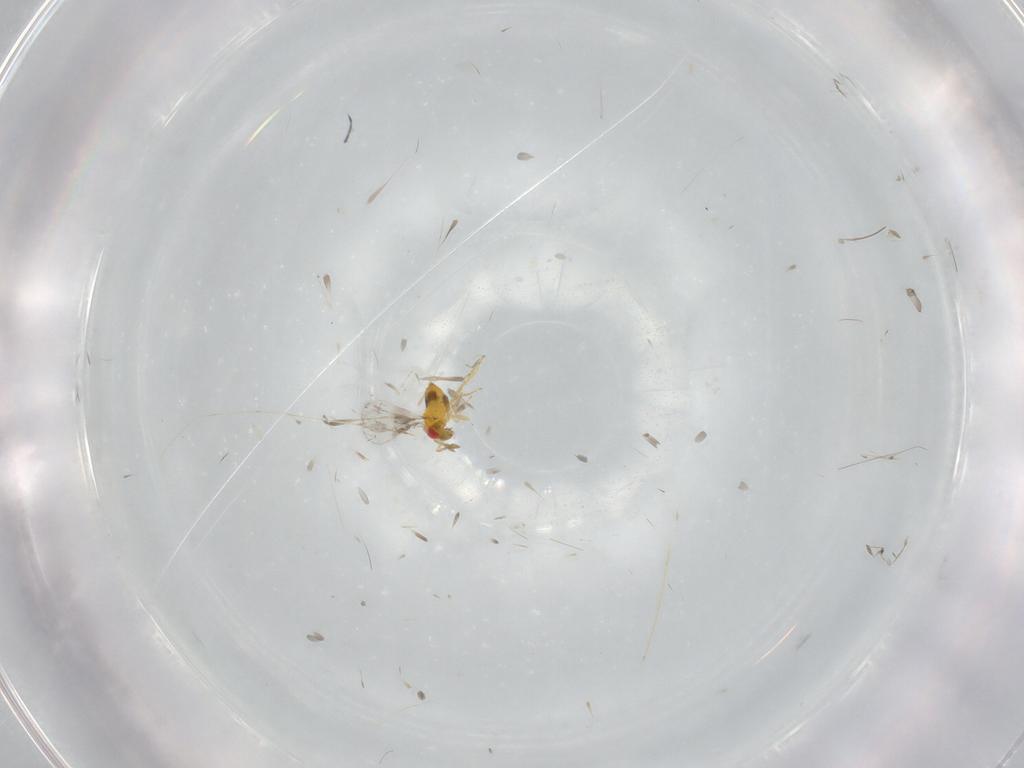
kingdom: Animalia
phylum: Arthropoda
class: Insecta
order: Hymenoptera
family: Trichogrammatidae
